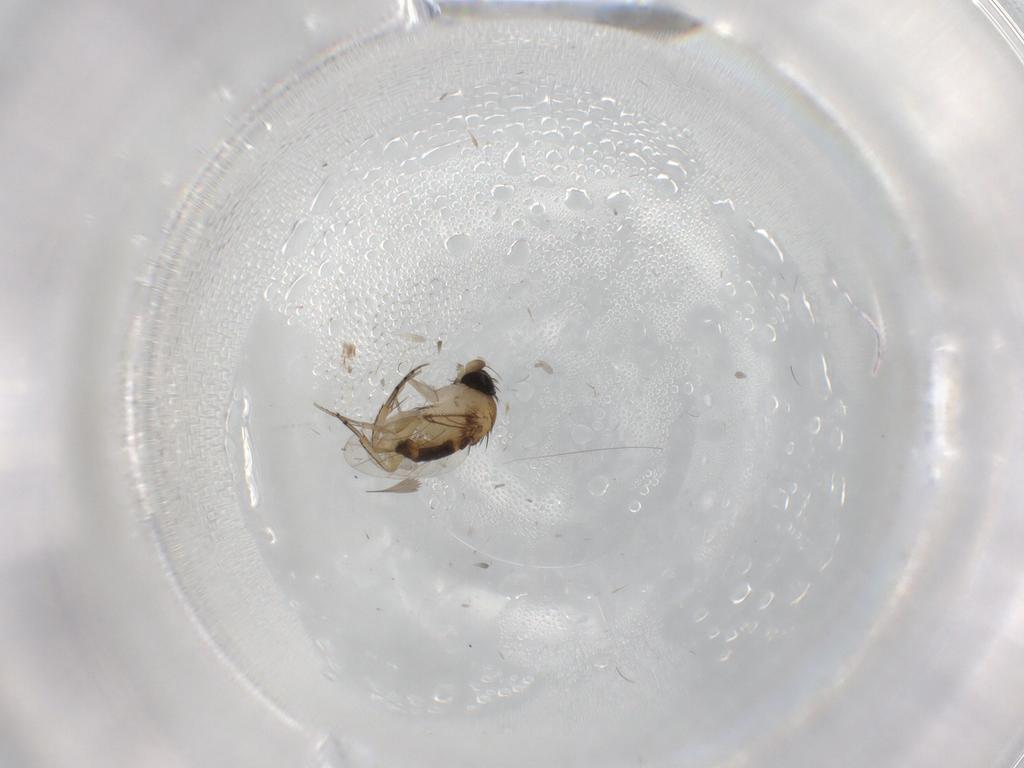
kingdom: Animalia
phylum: Arthropoda
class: Insecta
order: Diptera
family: Phoridae
